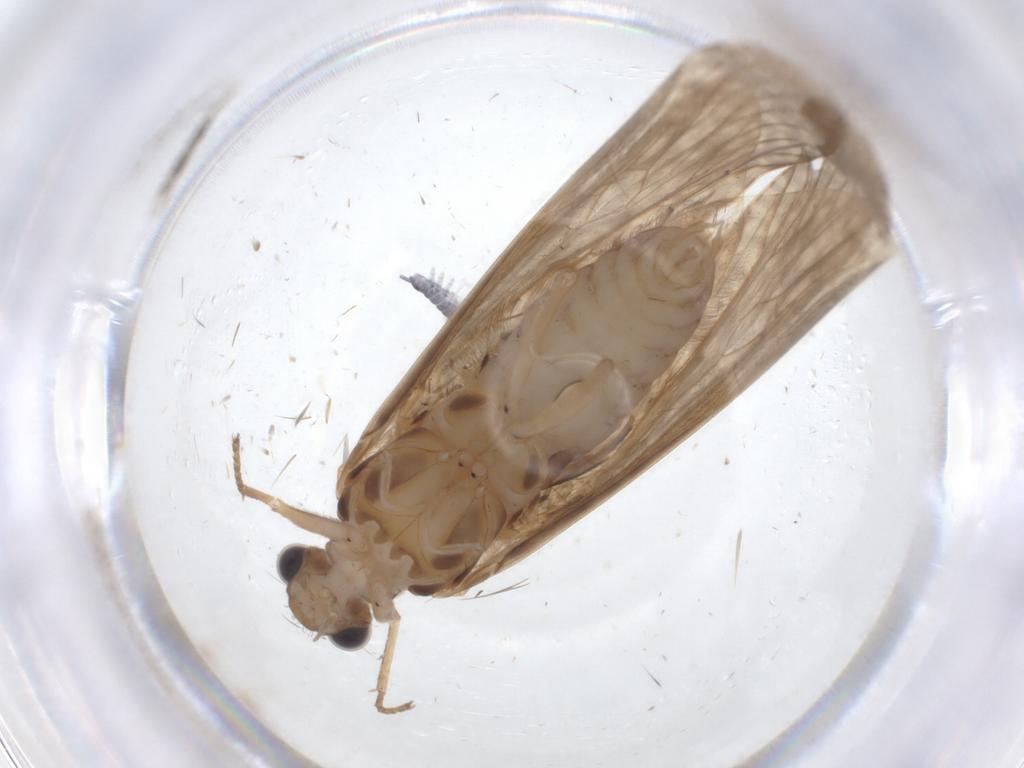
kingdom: Animalia
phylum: Arthropoda
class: Insecta
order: Trichoptera
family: Hydropsychidae
